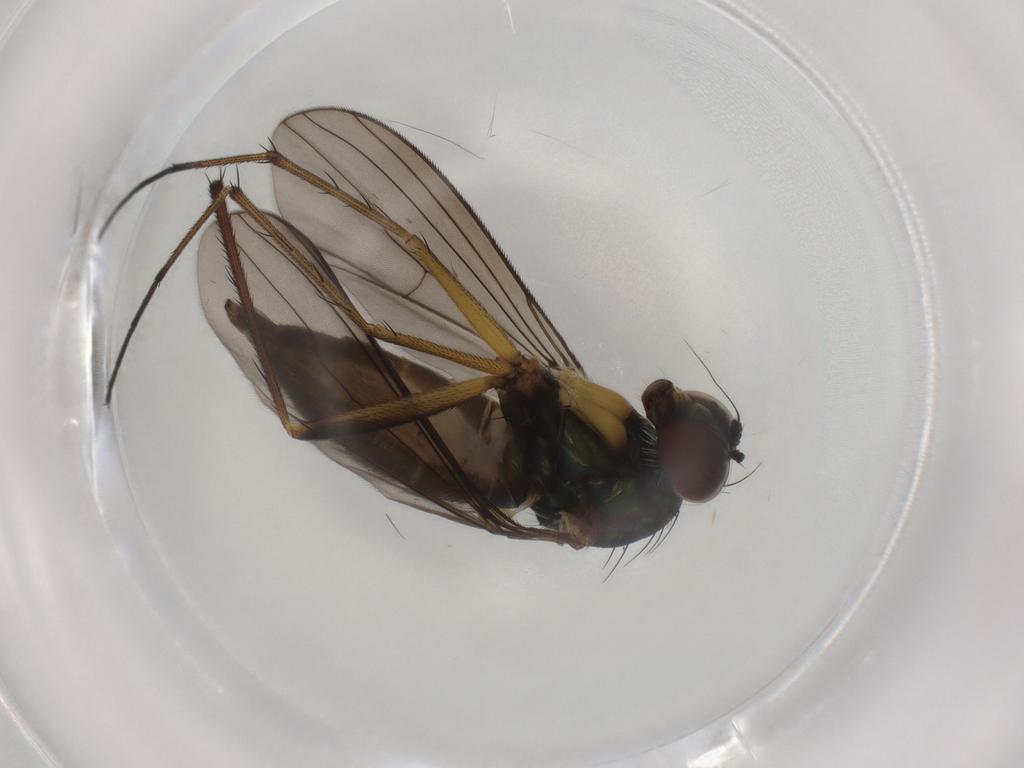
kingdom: Animalia
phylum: Arthropoda
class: Insecta
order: Diptera
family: Dolichopodidae
